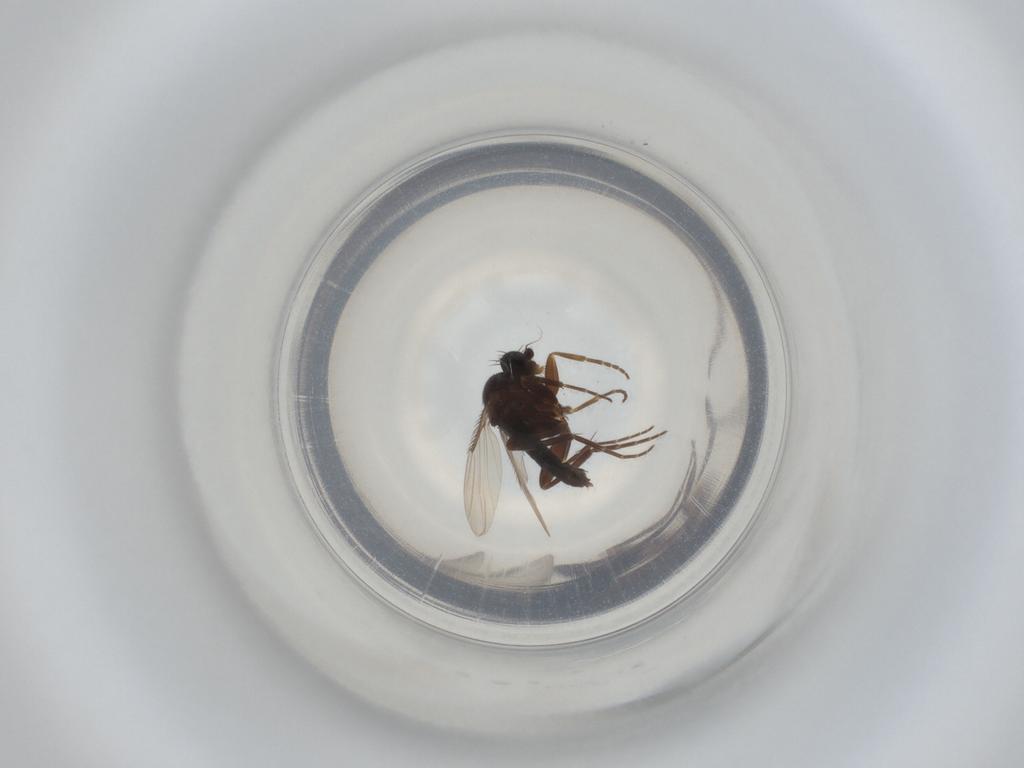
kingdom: Animalia
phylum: Arthropoda
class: Insecta
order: Diptera
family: Phoridae
